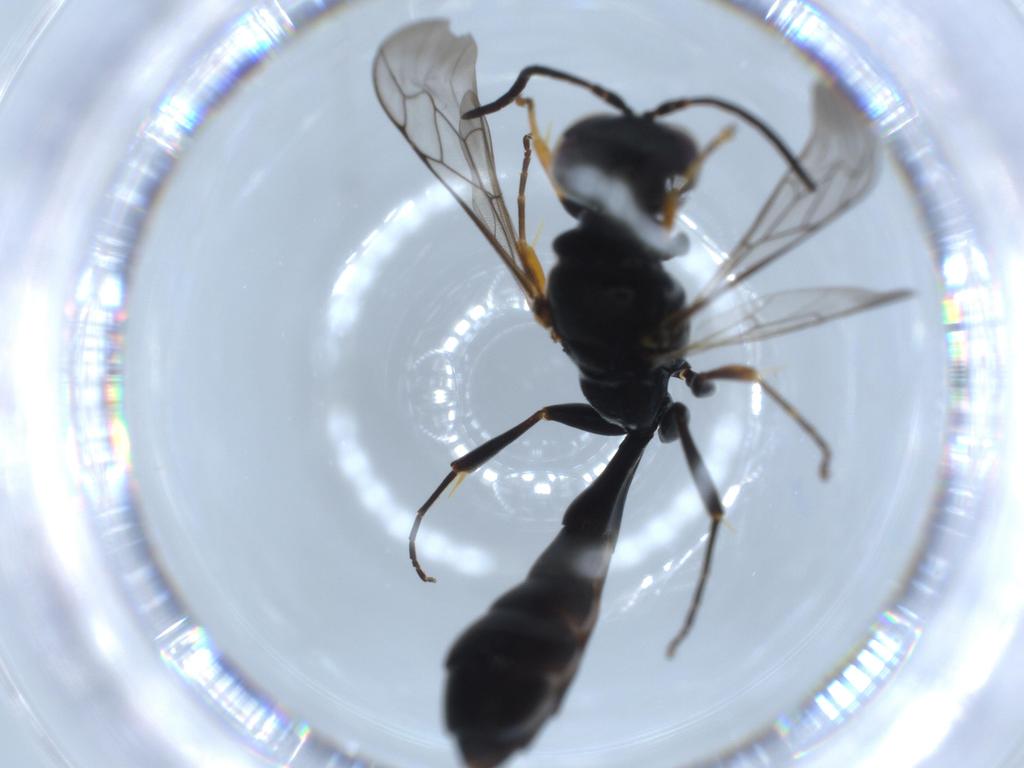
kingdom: Animalia
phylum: Arthropoda
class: Insecta
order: Hymenoptera
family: Crabronidae
